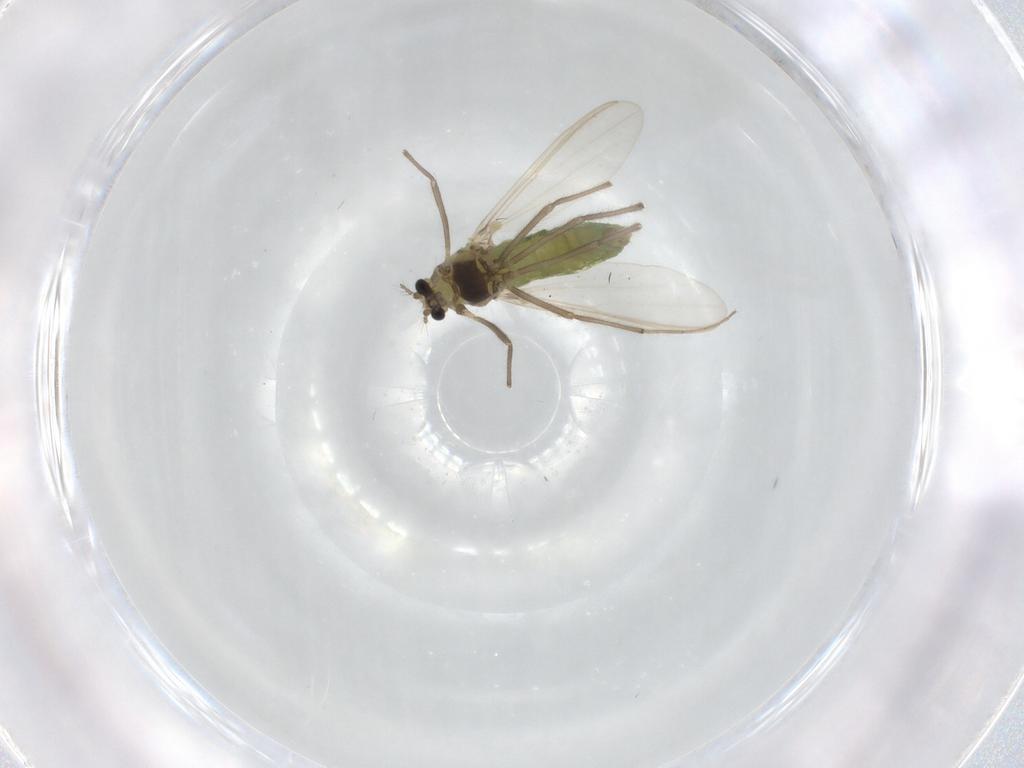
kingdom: Animalia
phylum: Arthropoda
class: Insecta
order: Diptera
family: Chironomidae
